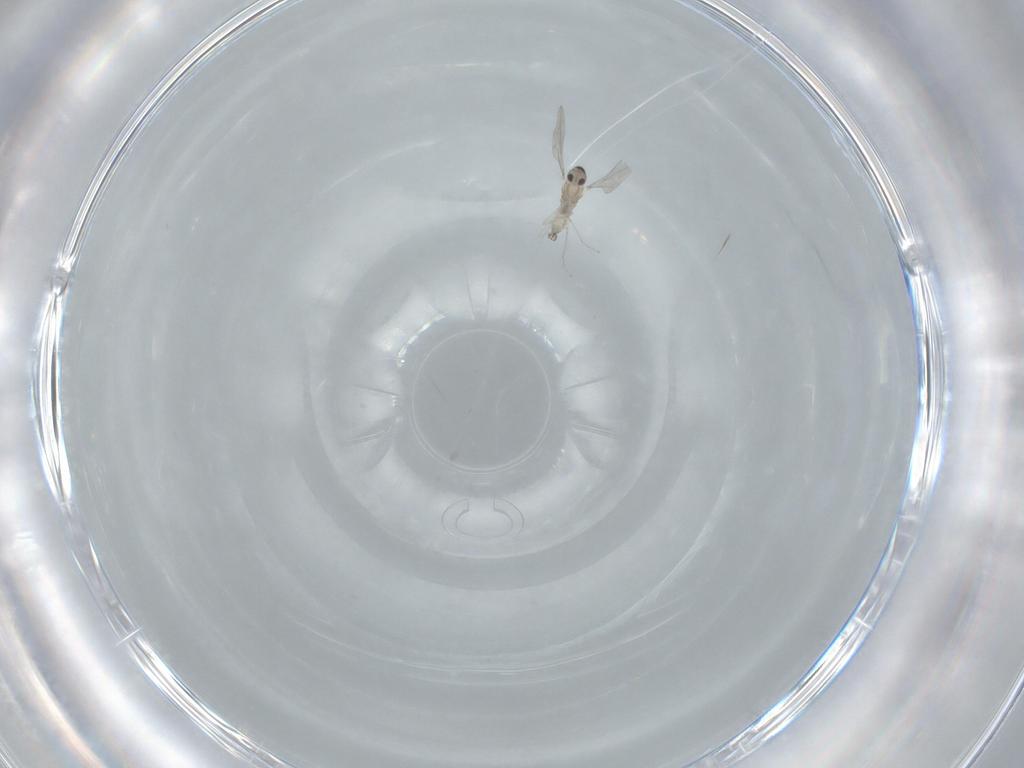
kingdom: Animalia
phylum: Arthropoda
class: Insecta
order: Diptera
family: Cecidomyiidae
